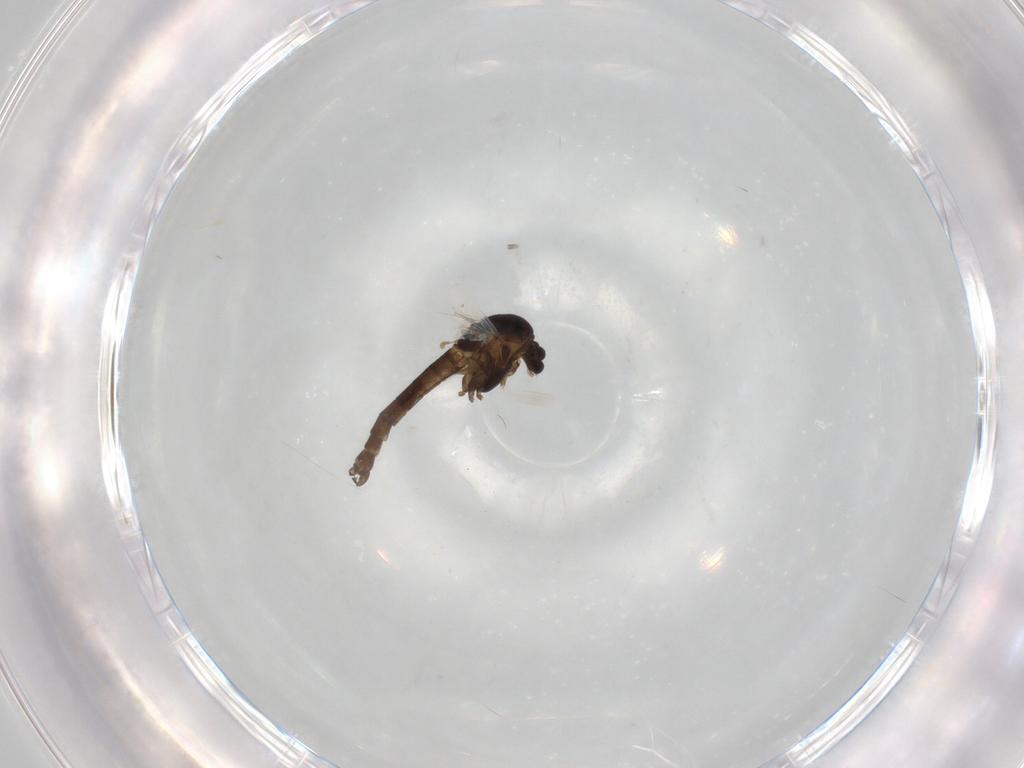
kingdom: Animalia
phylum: Arthropoda
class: Insecta
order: Diptera
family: Chironomidae
